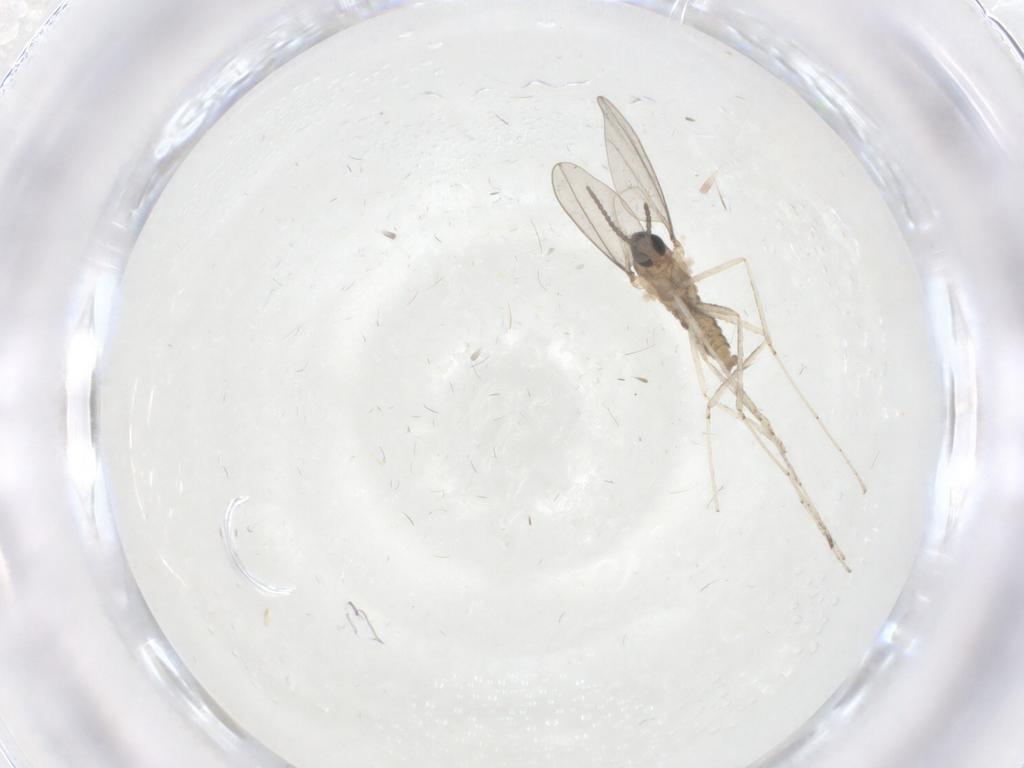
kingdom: Animalia
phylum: Arthropoda
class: Insecta
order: Diptera
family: Cecidomyiidae
